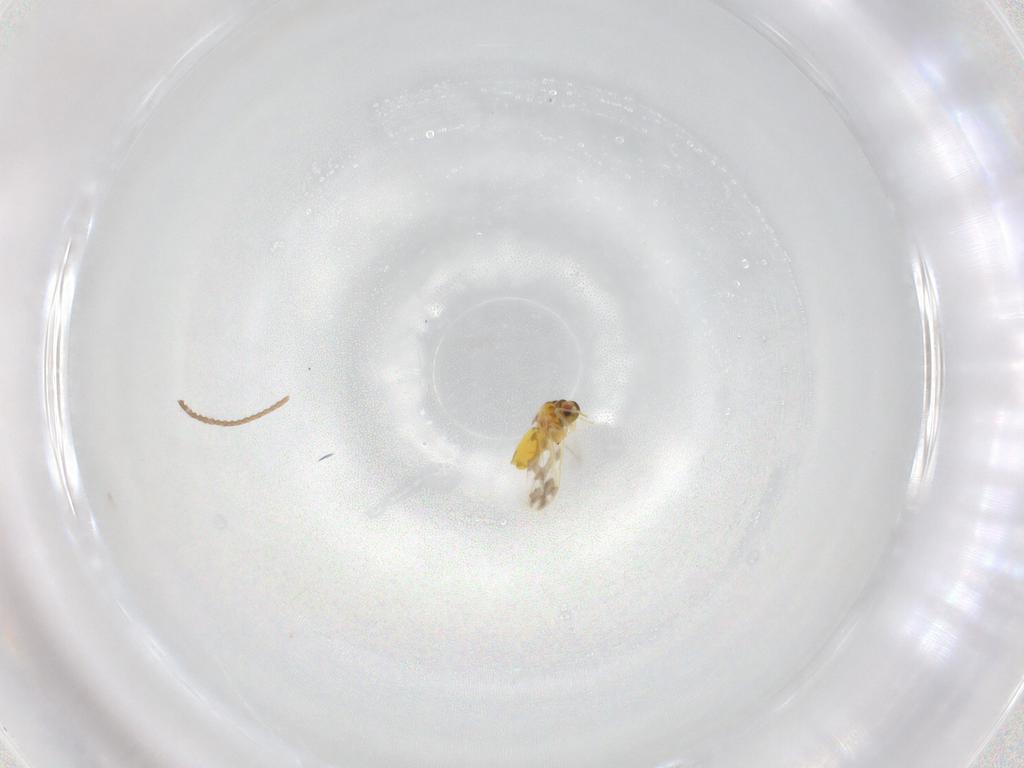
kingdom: Animalia
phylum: Arthropoda
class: Insecta
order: Hemiptera
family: Aleyrodidae
